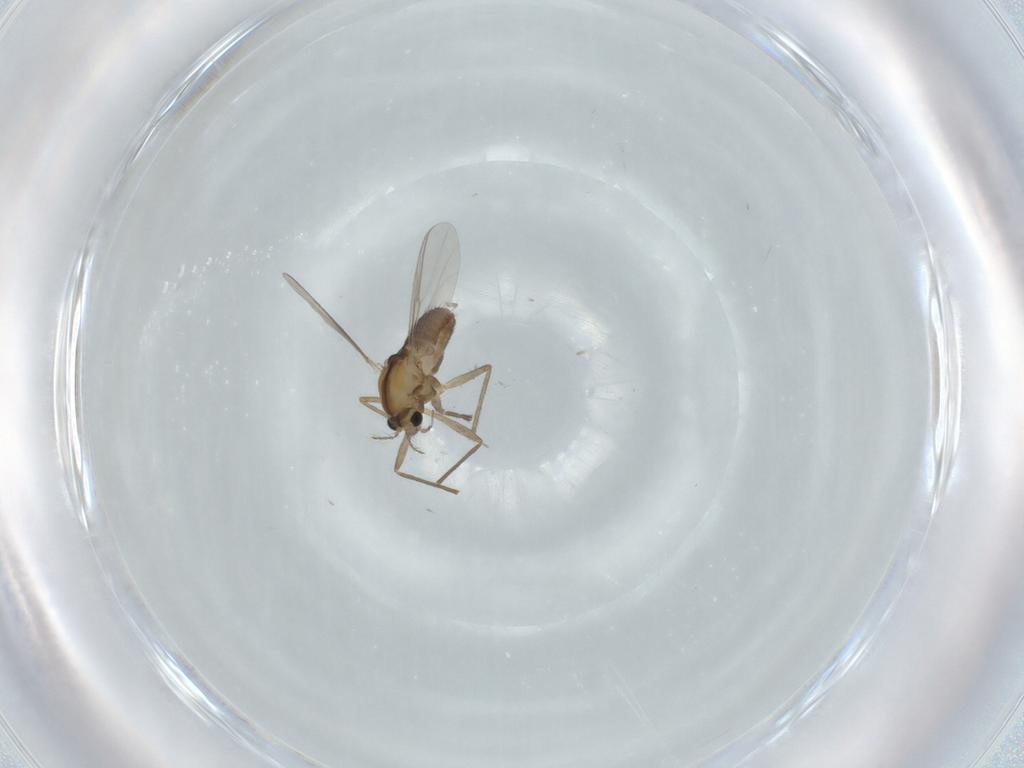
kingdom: Animalia
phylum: Arthropoda
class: Insecta
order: Diptera
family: Chironomidae
